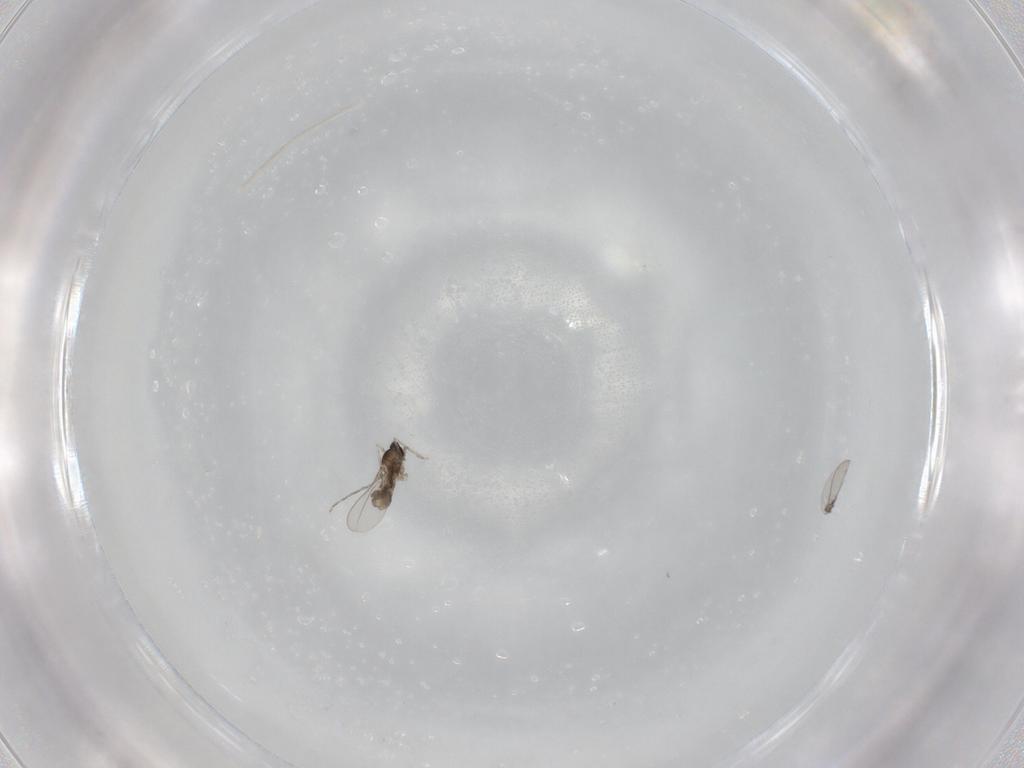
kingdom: Animalia
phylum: Arthropoda
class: Insecta
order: Diptera
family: Cecidomyiidae
